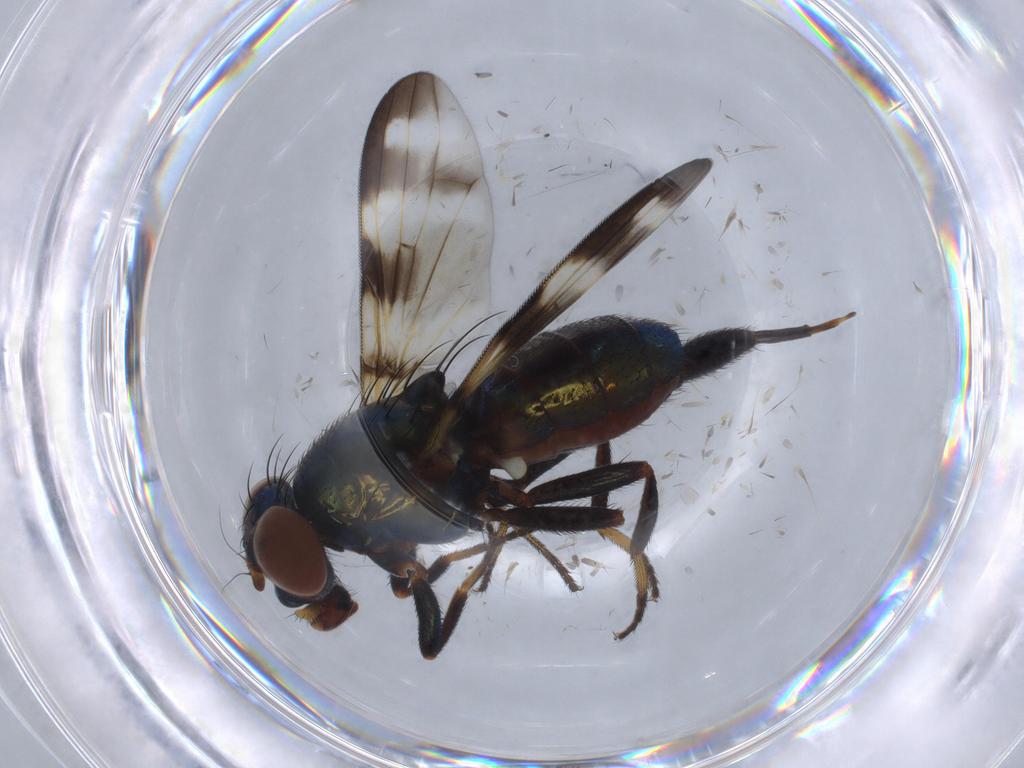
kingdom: Animalia
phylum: Arthropoda
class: Insecta
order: Diptera
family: Ulidiidae
